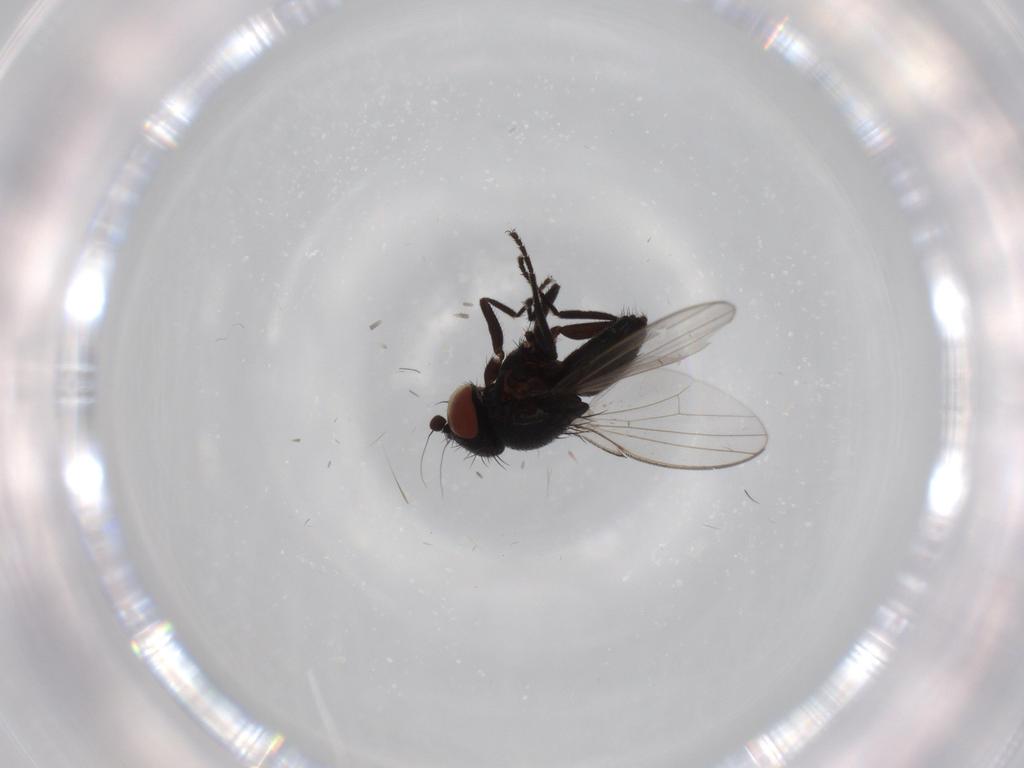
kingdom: Animalia
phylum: Arthropoda
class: Insecta
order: Diptera
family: Milichiidae
